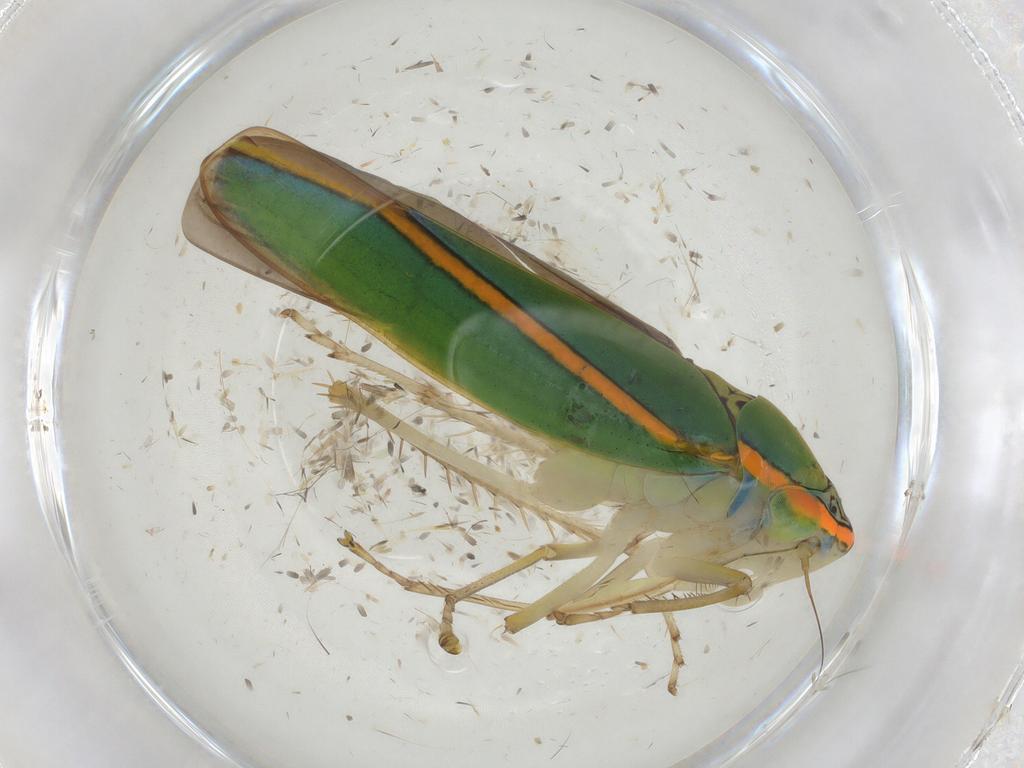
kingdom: Animalia
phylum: Arthropoda
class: Insecta
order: Hemiptera
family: Cicadellidae
